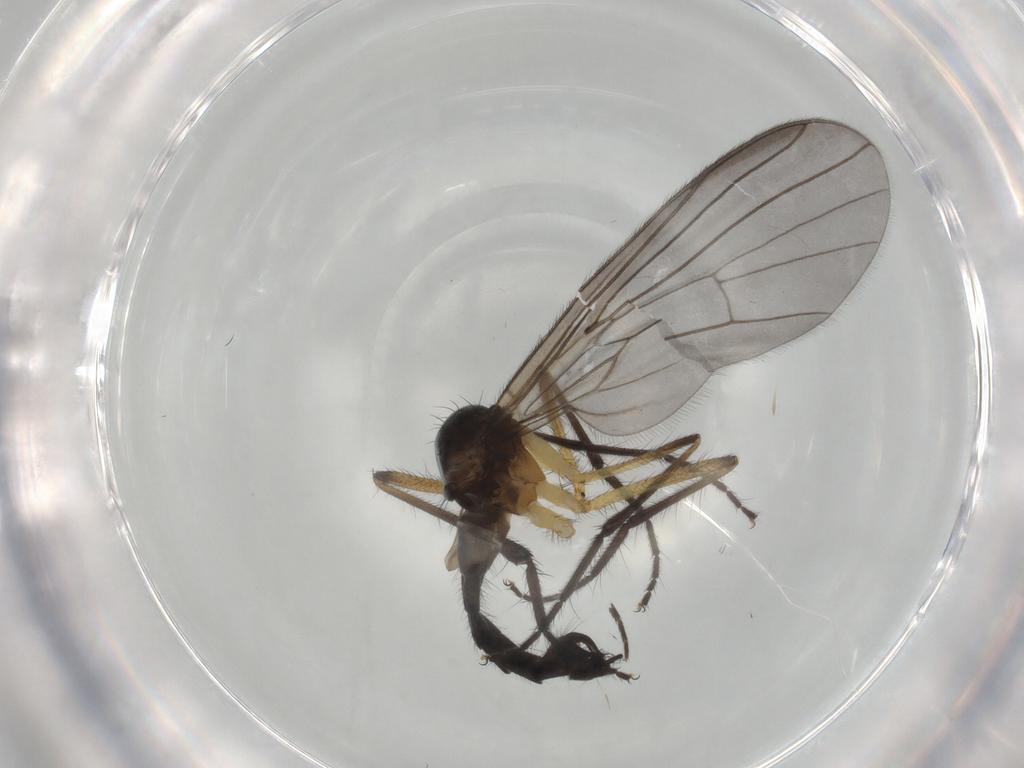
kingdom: Animalia
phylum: Arthropoda
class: Insecta
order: Diptera
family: Empididae
